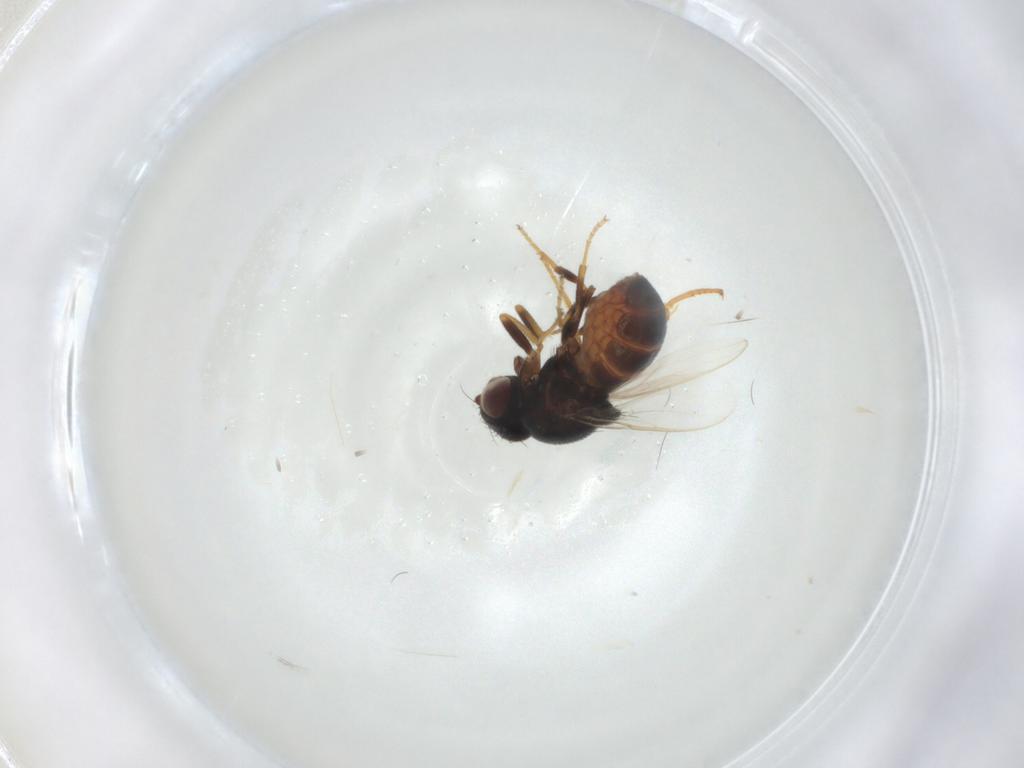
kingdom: Animalia
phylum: Arthropoda
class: Insecta
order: Diptera
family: Chloropidae
